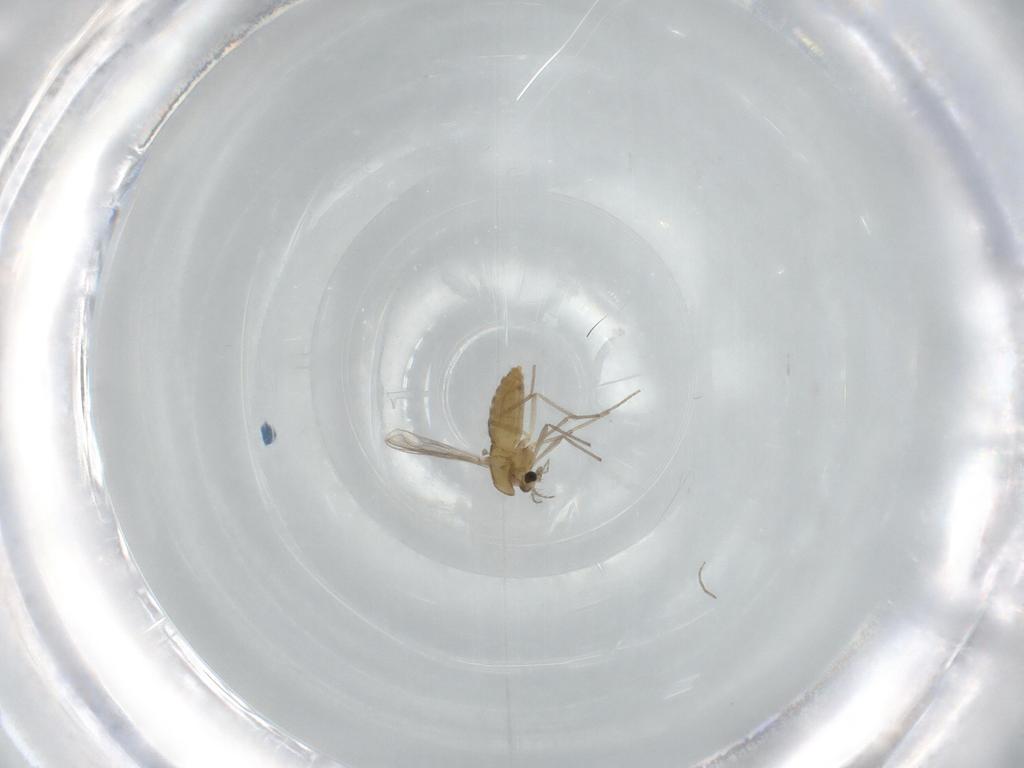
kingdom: Animalia
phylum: Arthropoda
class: Insecta
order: Diptera
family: Chironomidae
